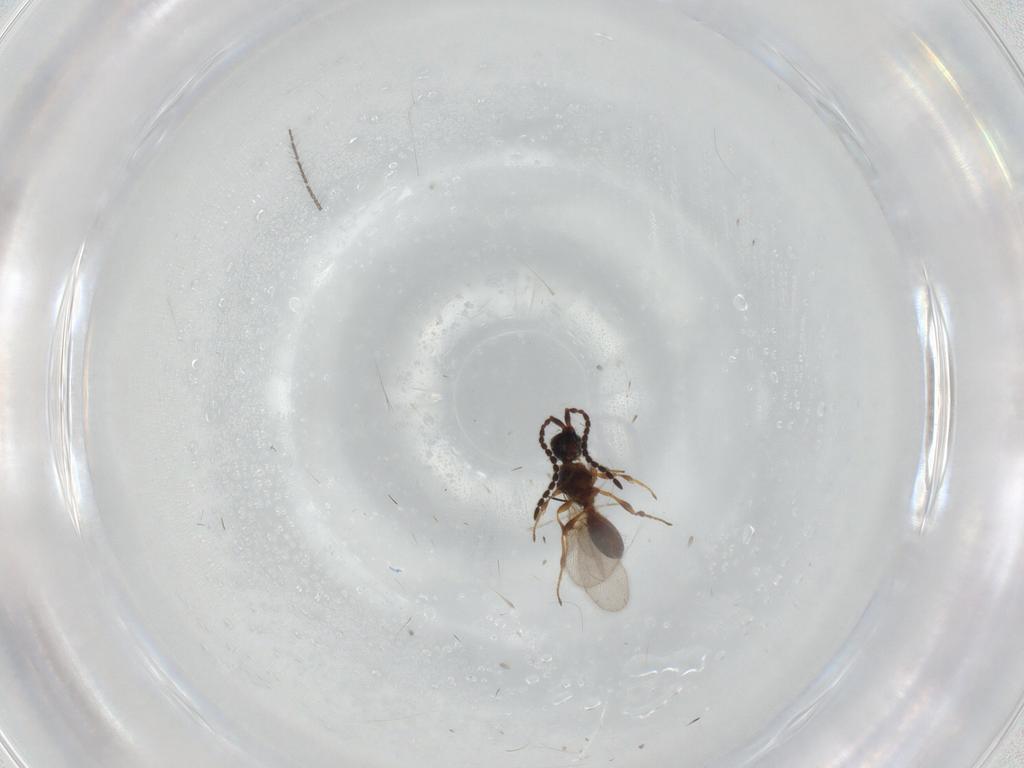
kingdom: Animalia
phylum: Arthropoda
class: Insecta
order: Hymenoptera
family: Diapriidae
